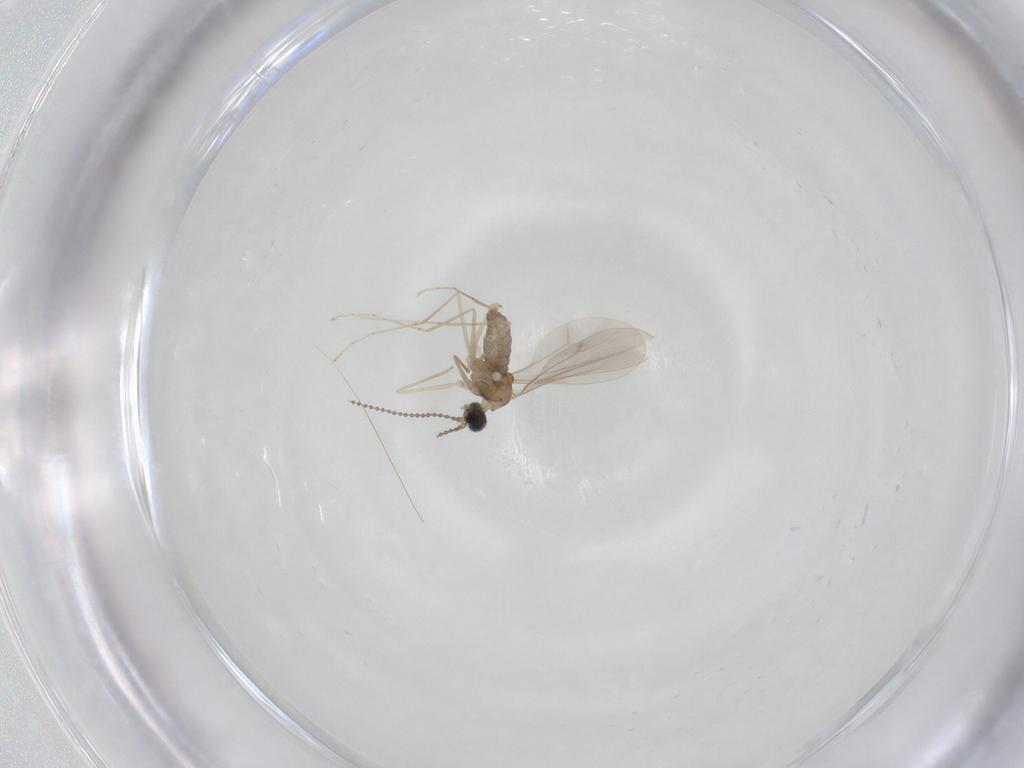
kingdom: Animalia
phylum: Arthropoda
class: Insecta
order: Diptera
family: Cecidomyiidae
